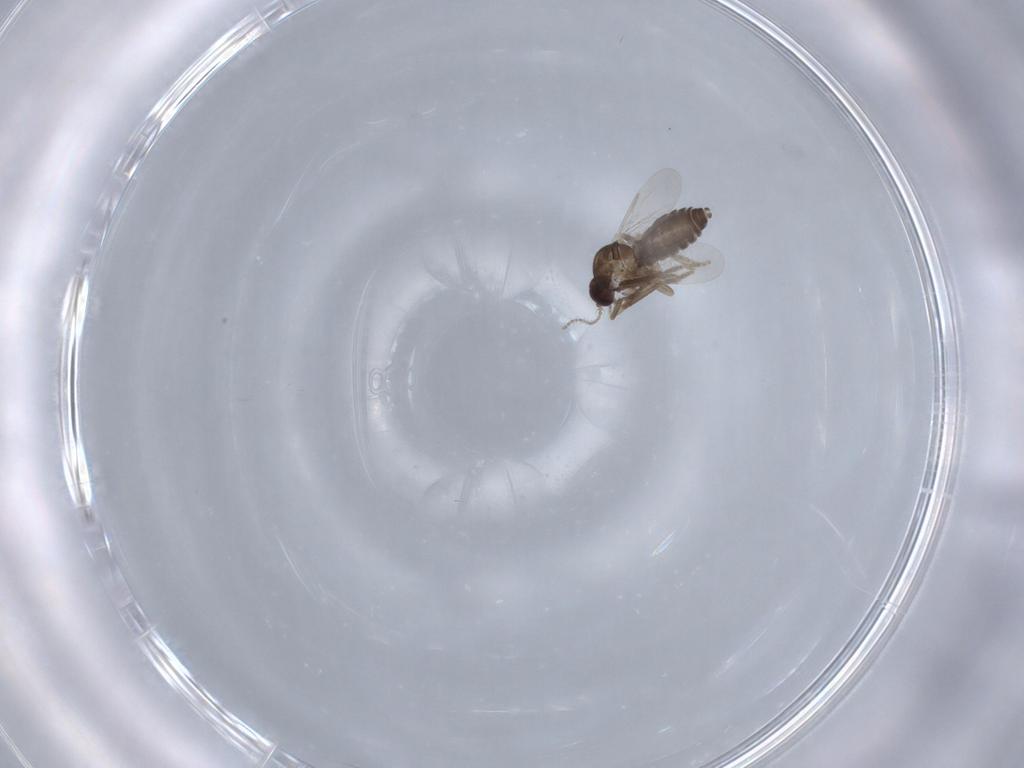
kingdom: Animalia
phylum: Arthropoda
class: Insecta
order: Diptera
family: Ceratopogonidae
